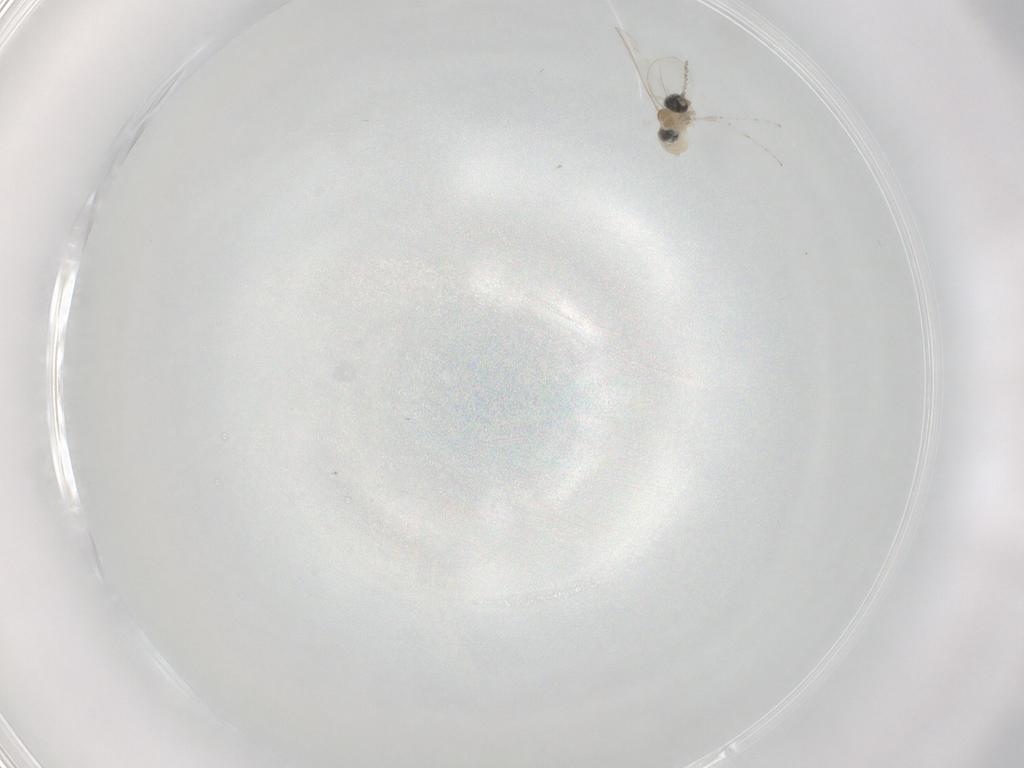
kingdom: Animalia
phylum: Arthropoda
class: Insecta
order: Diptera
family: Cecidomyiidae
